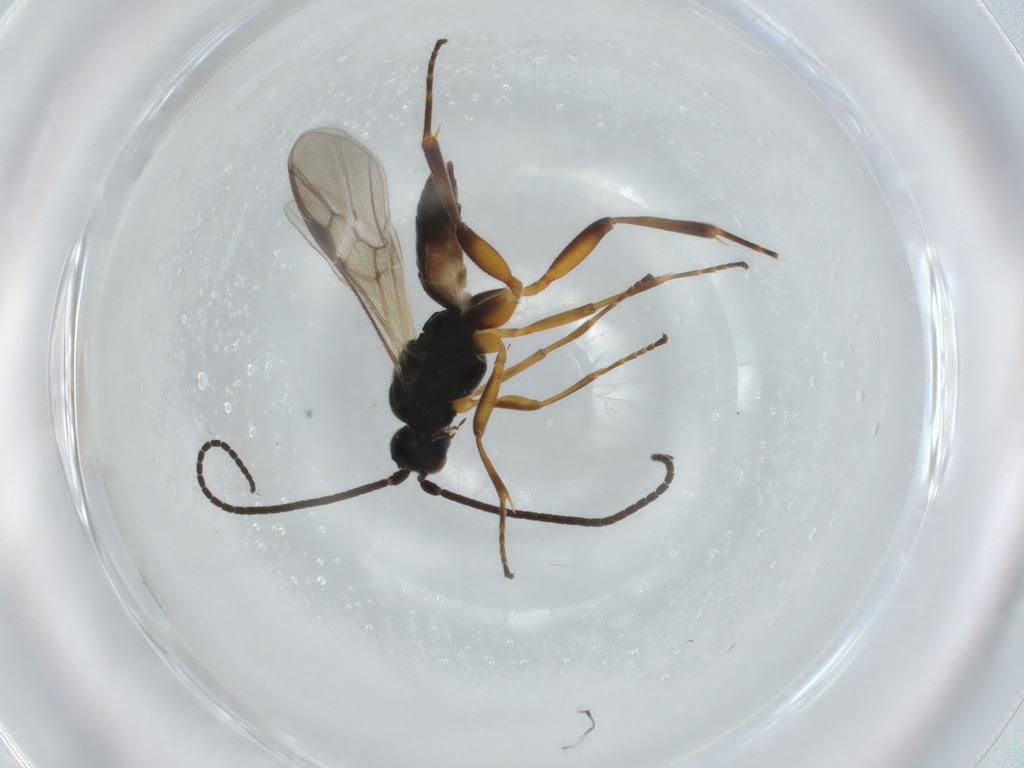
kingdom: Animalia
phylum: Arthropoda
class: Insecta
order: Hymenoptera
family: Braconidae
